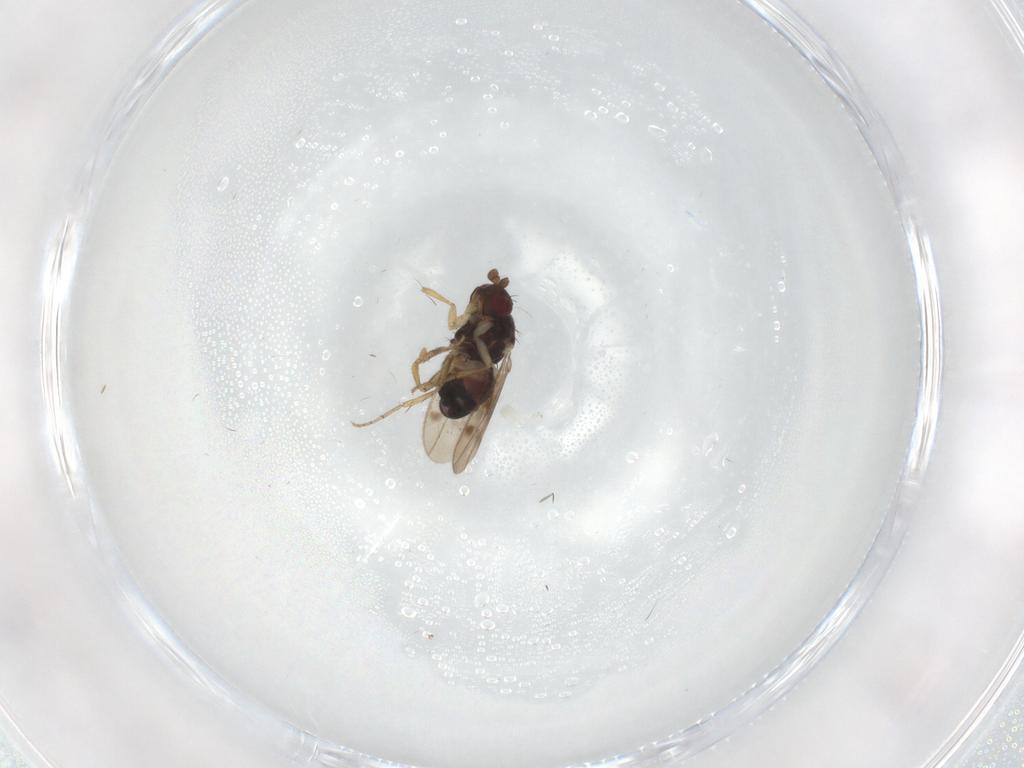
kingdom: Animalia
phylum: Arthropoda
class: Insecta
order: Diptera
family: Sphaeroceridae
